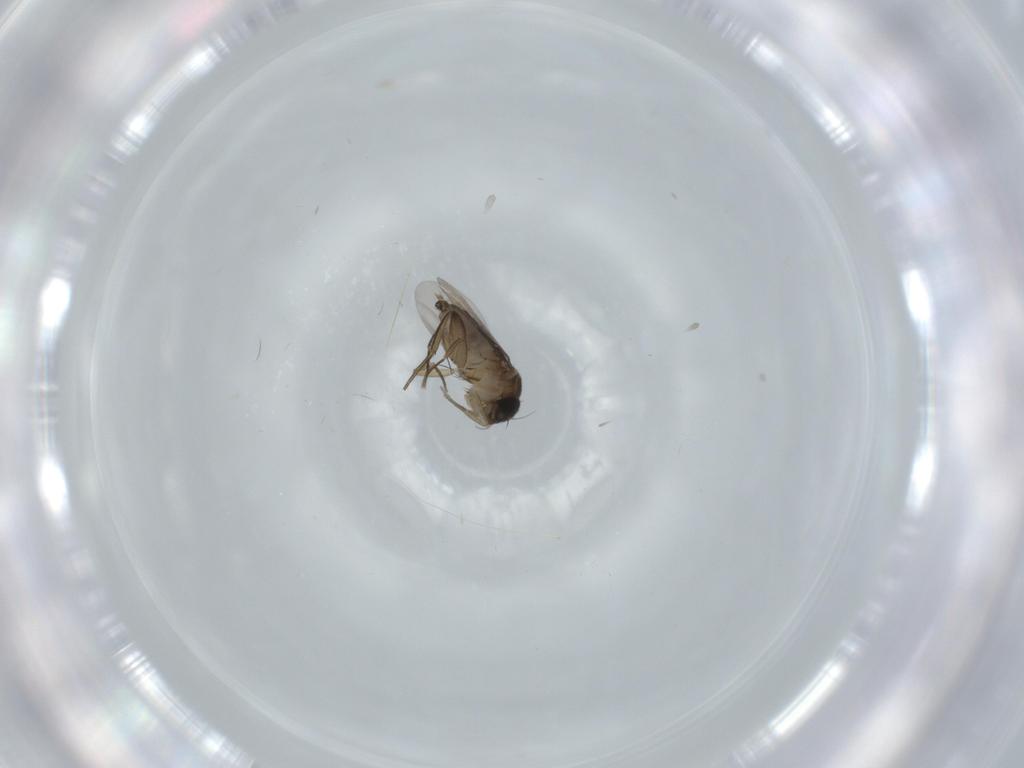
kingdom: Animalia
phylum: Arthropoda
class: Insecta
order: Diptera
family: Phoridae
